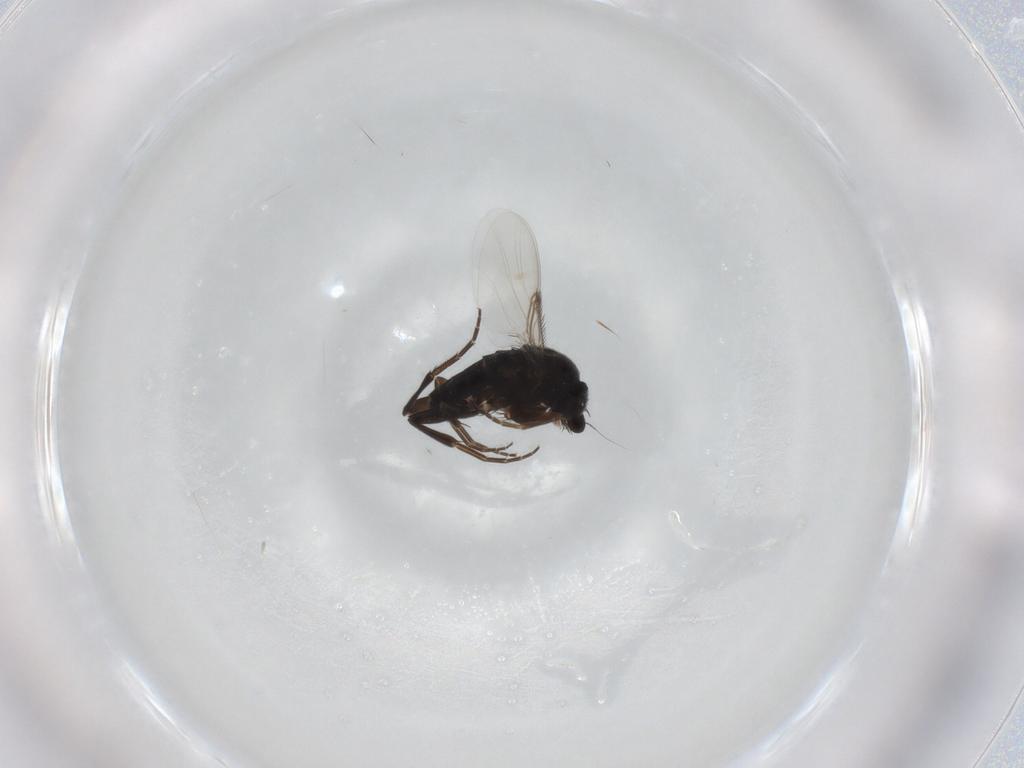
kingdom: Animalia
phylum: Arthropoda
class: Insecta
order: Diptera
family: Phoridae
